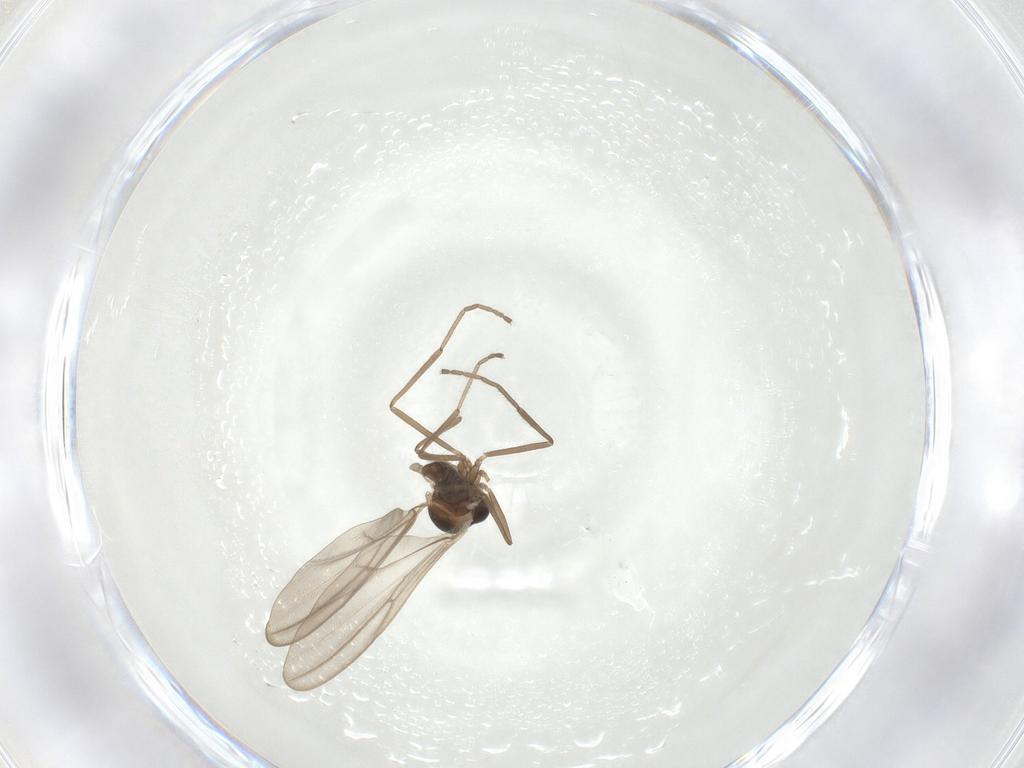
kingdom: Animalia
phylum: Arthropoda
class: Insecta
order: Diptera
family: Cecidomyiidae
